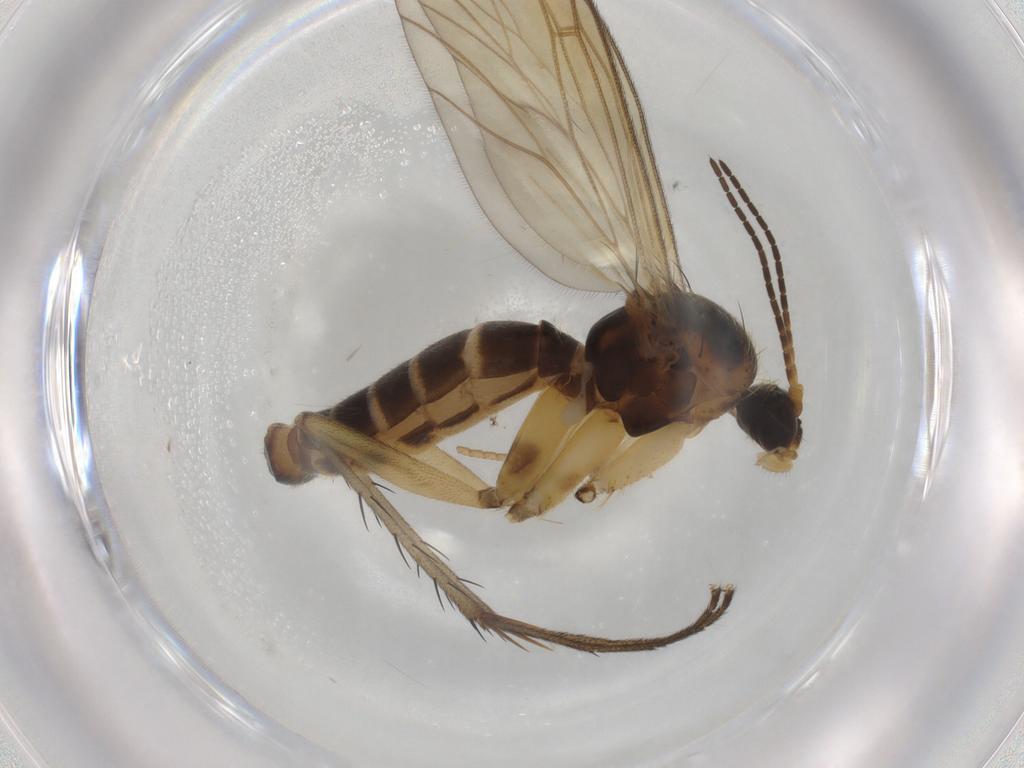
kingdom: Animalia
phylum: Arthropoda
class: Insecta
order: Diptera
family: Mycetophilidae
